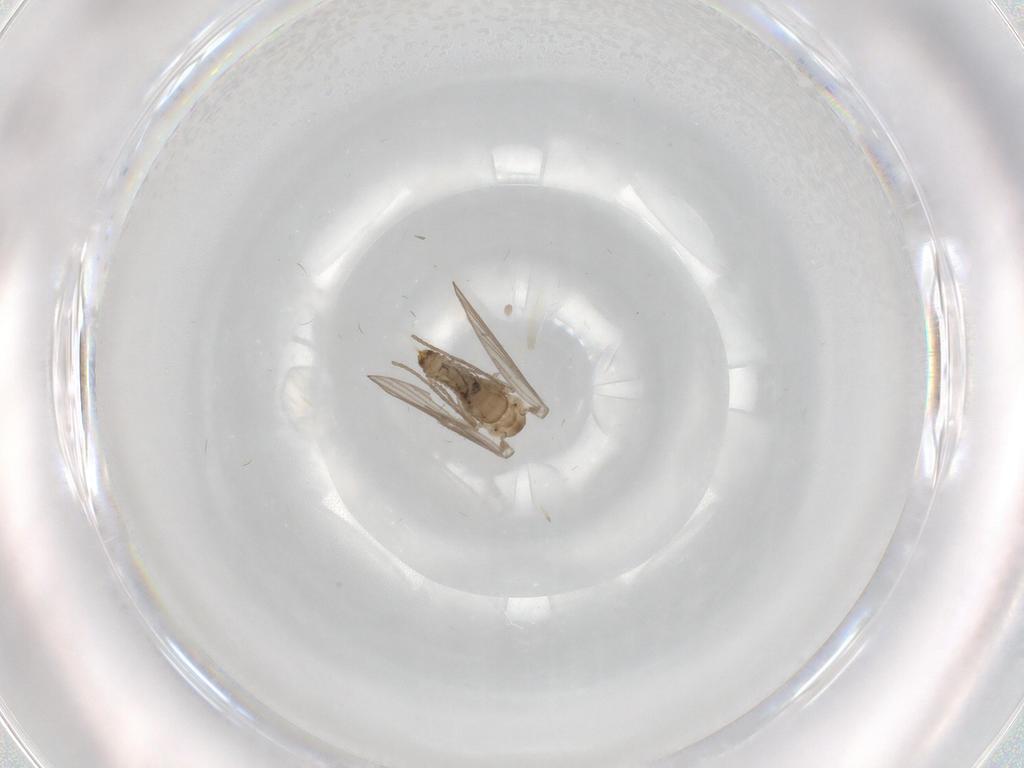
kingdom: Animalia
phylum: Arthropoda
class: Insecta
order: Diptera
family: Psychodidae
